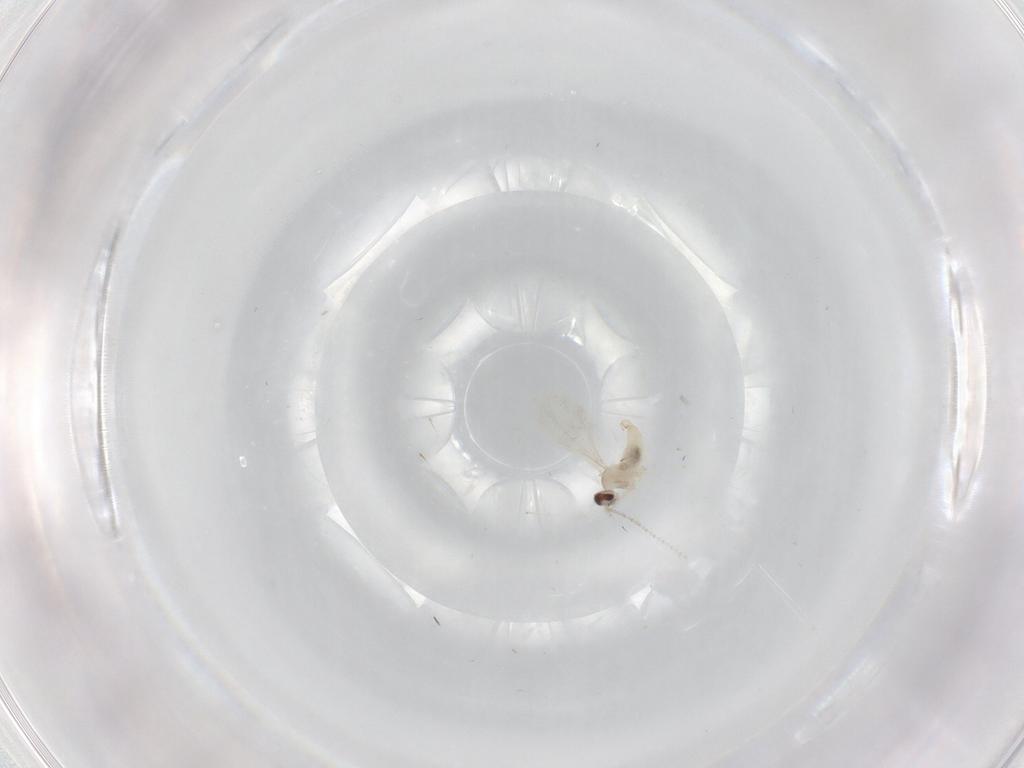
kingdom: Animalia
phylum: Arthropoda
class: Insecta
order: Diptera
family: Cecidomyiidae
